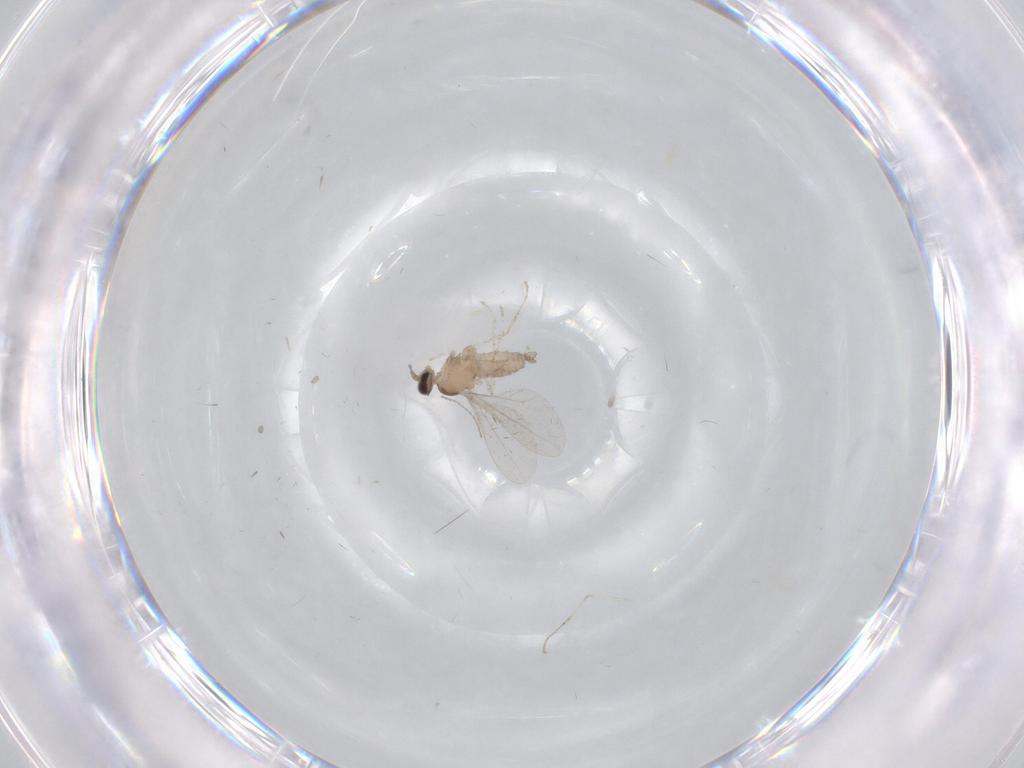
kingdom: Animalia
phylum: Arthropoda
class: Insecta
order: Diptera
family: Cecidomyiidae
